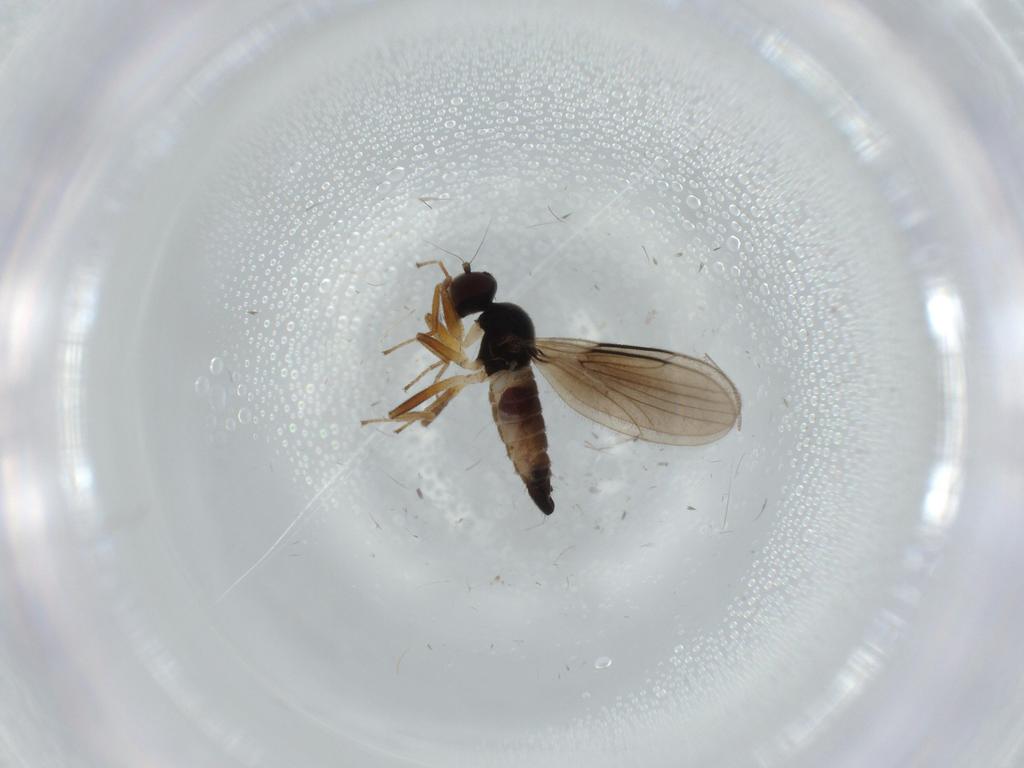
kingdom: Animalia
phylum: Arthropoda
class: Insecta
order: Diptera
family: Hybotidae
